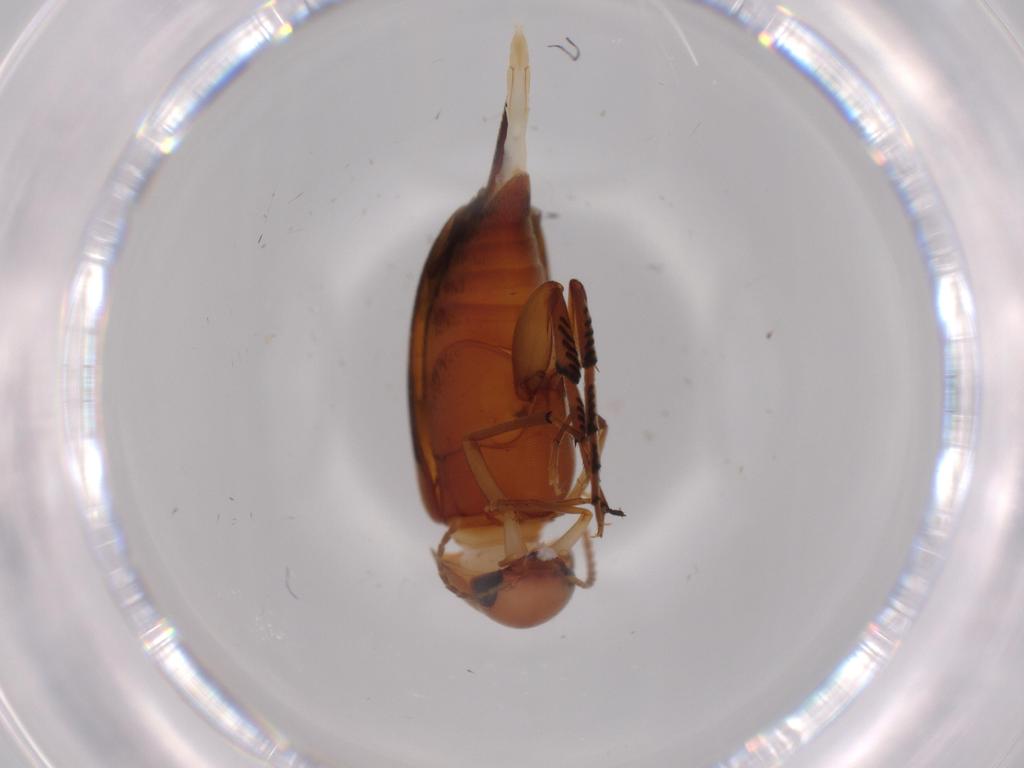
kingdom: Animalia
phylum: Arthropoda
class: Insecta
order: Coleoptera
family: Mordellidae
